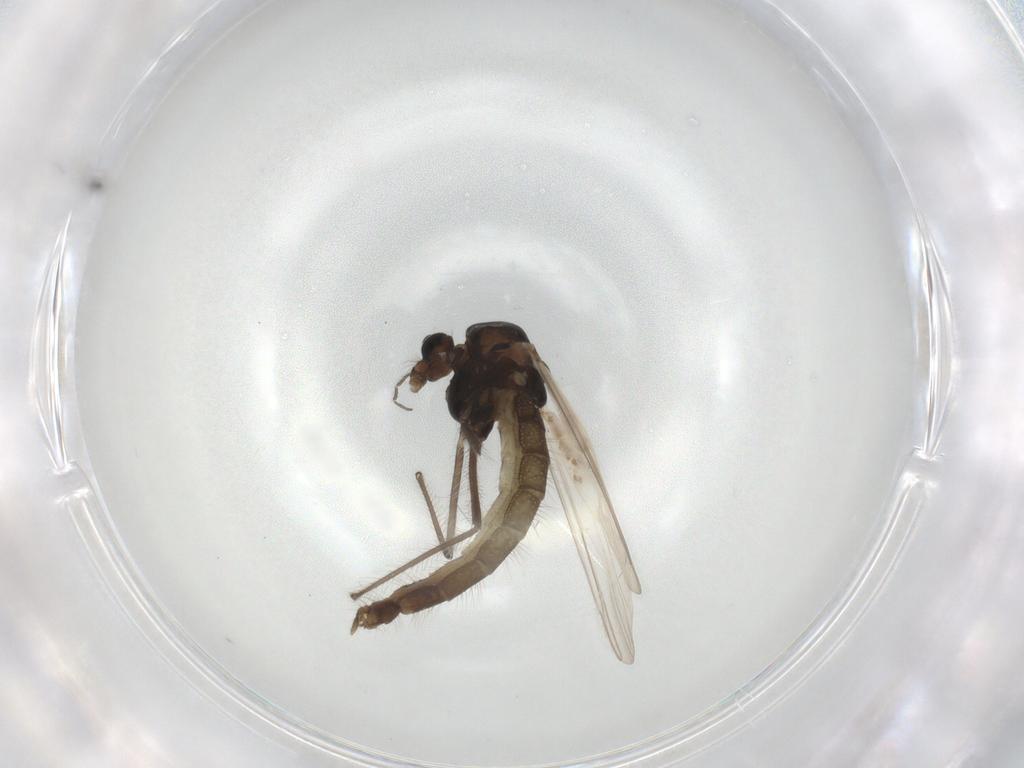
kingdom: Animalia
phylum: Arthropoda
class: Insecta
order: Diptera
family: Chironomidae
